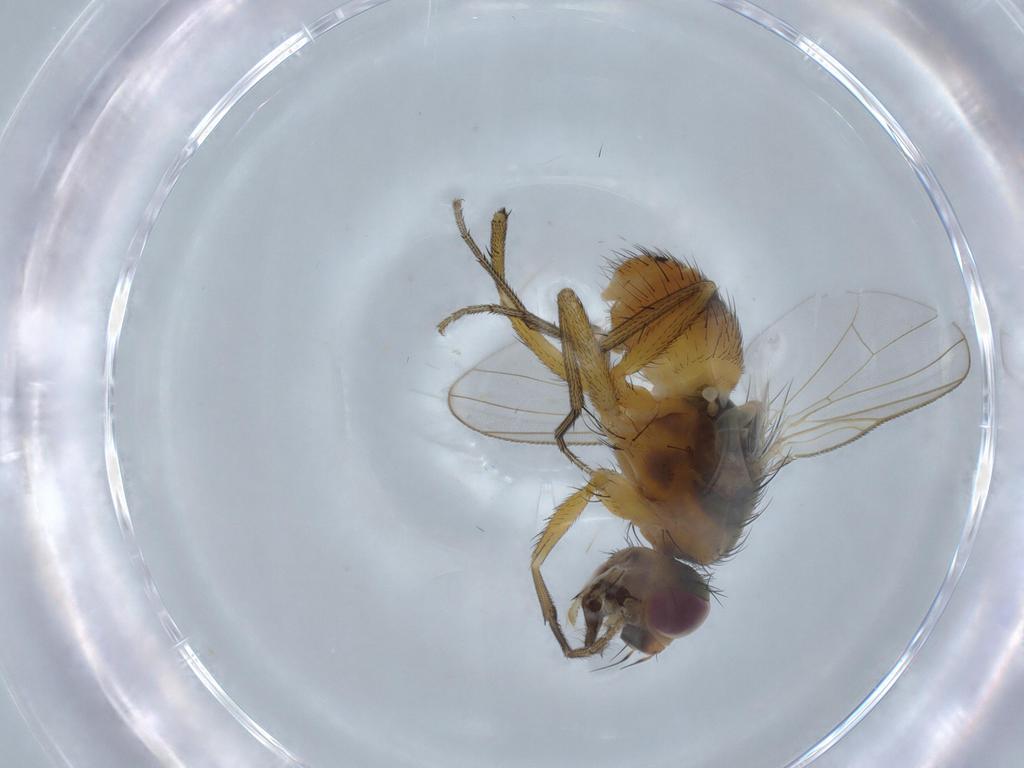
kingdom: Animalia
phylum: Arthropoda
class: Insecta
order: Diptera
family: Muscidae
